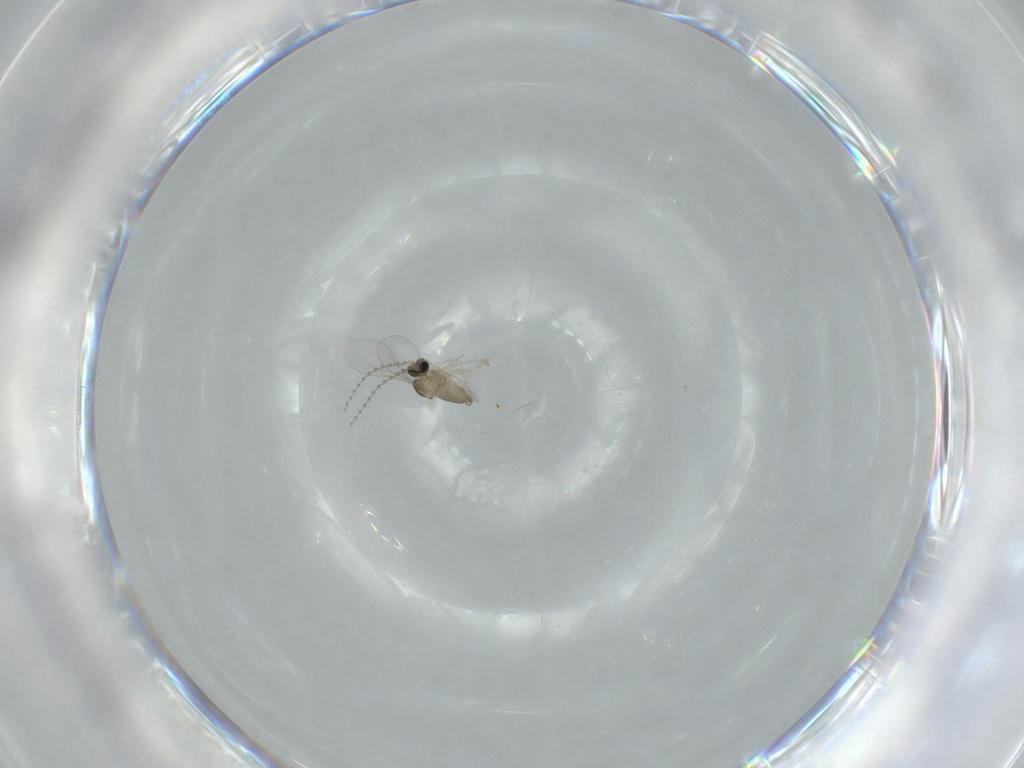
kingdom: Animalia
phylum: Arthropoda
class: Insecta
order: Diptera
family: Cecidomyiidae
